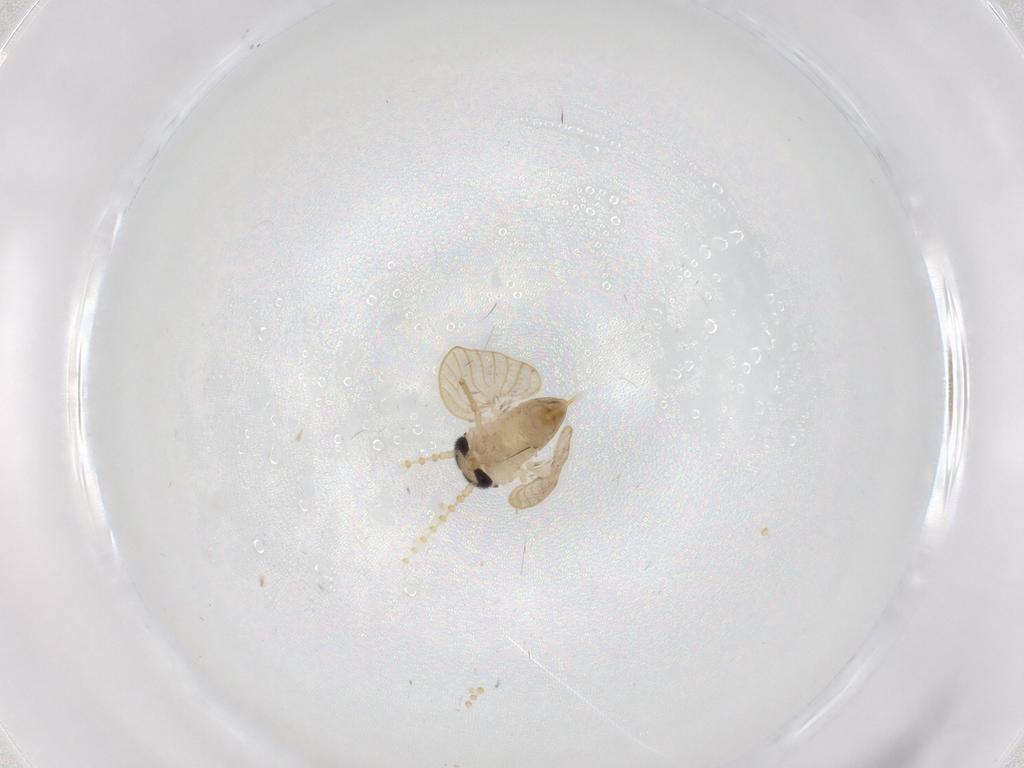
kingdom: Animalia
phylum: Arthropoda
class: Insecta
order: Diptera
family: Psychodidae
